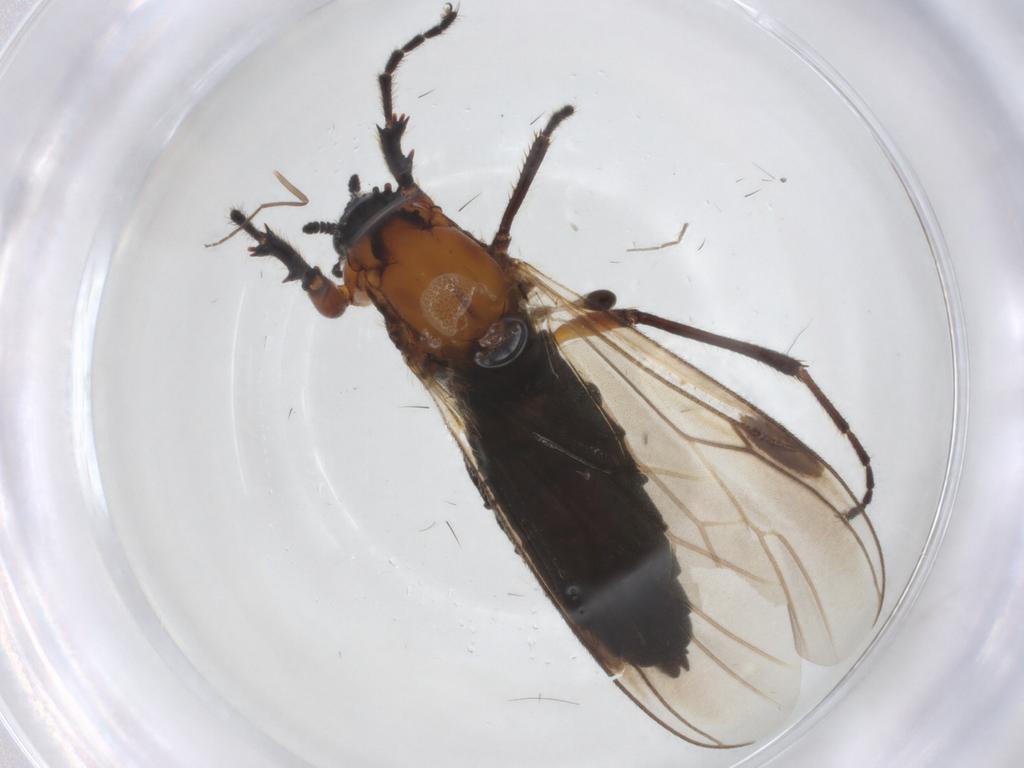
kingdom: Animalia
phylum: Arthropoda
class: Insecta
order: Diptera
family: Bibionidae
